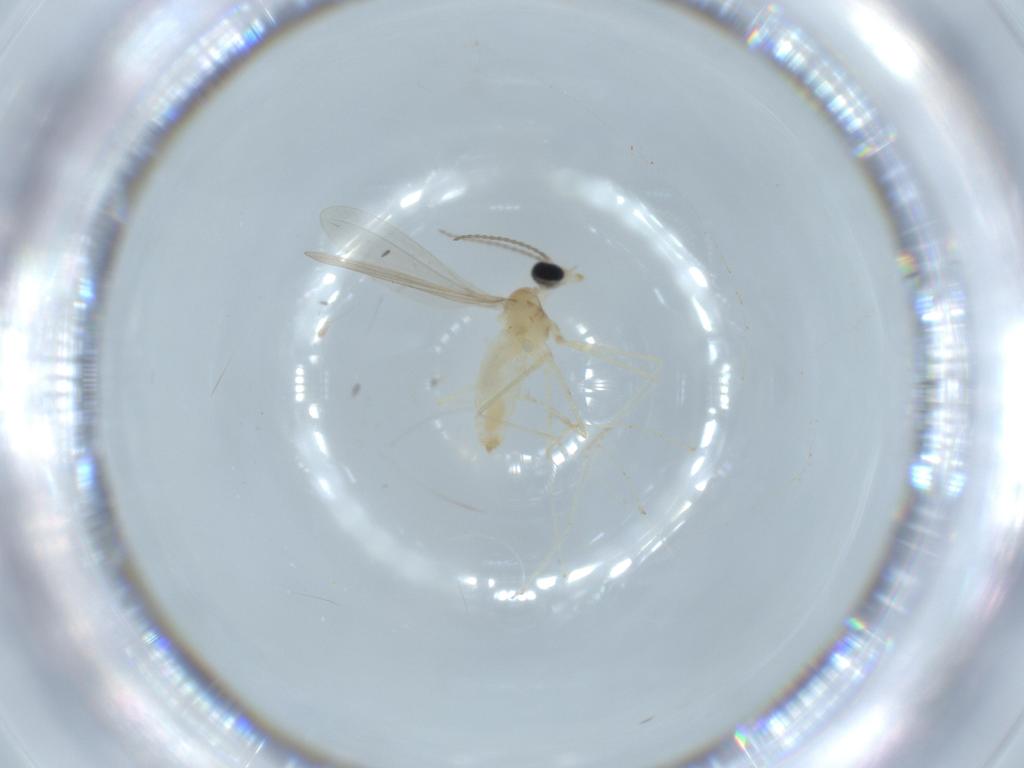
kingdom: Animalia
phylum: Arthropoda
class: Insecta
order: Diptera
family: Cecidomyiidae
